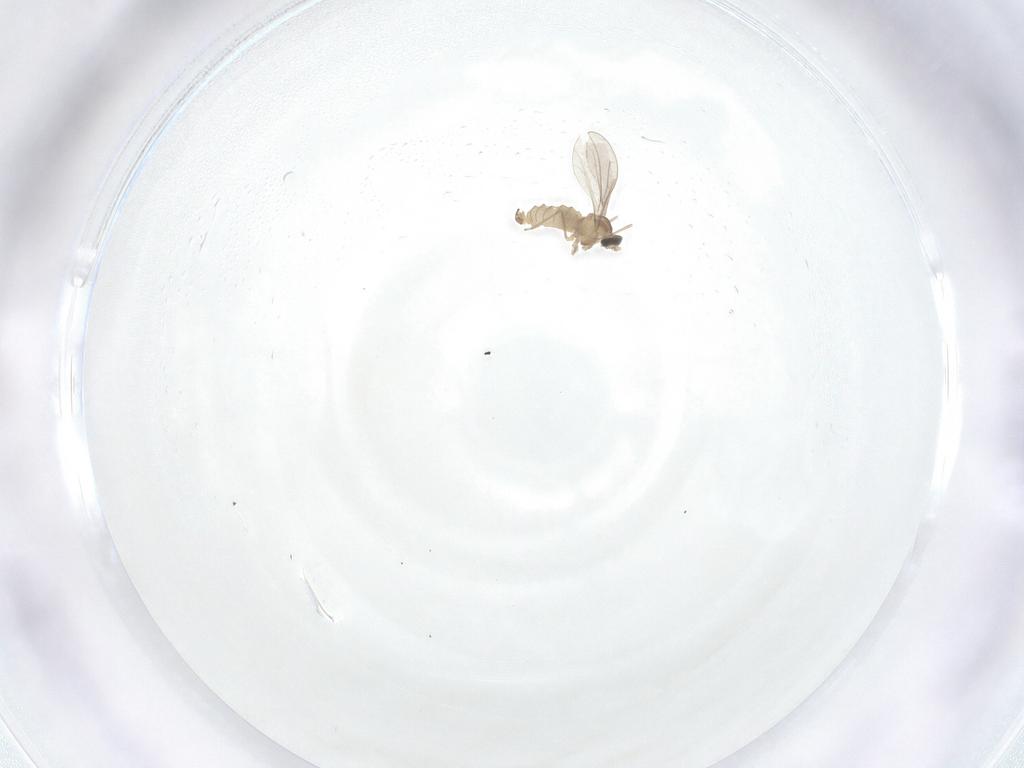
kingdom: Animalia
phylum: Arthropoda
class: Insecta
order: Diptera
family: Cecidomyiidae
